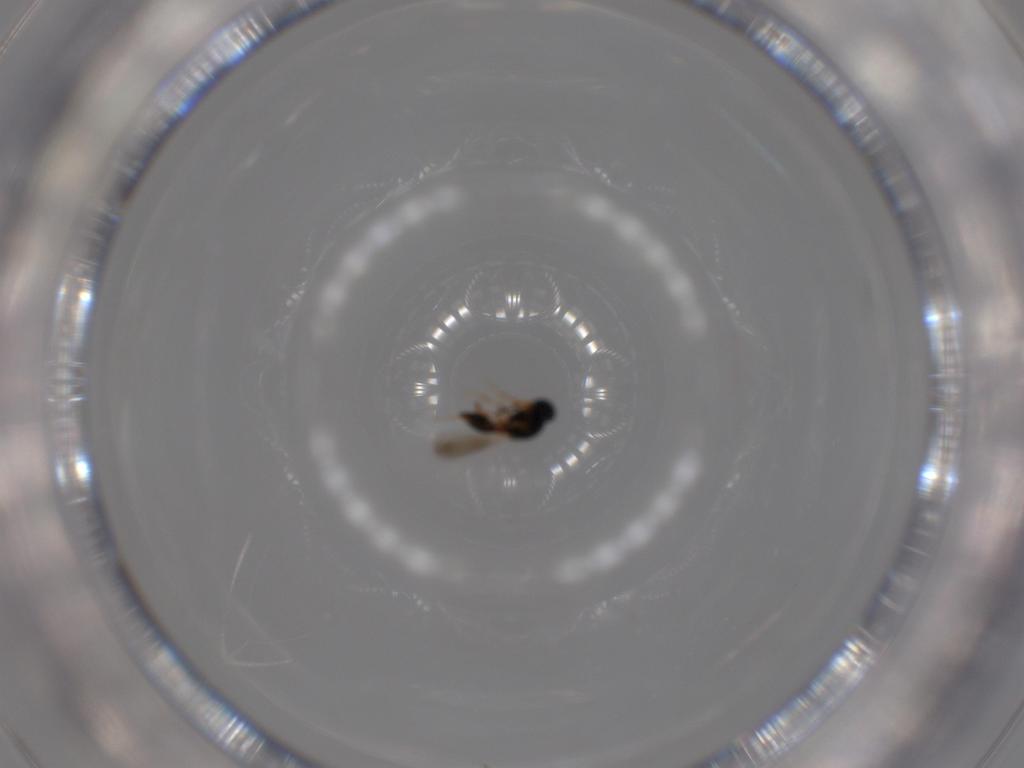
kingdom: Animalia
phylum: Arthropoda
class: Insecta
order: Hymenoptera
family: Platygastridae
